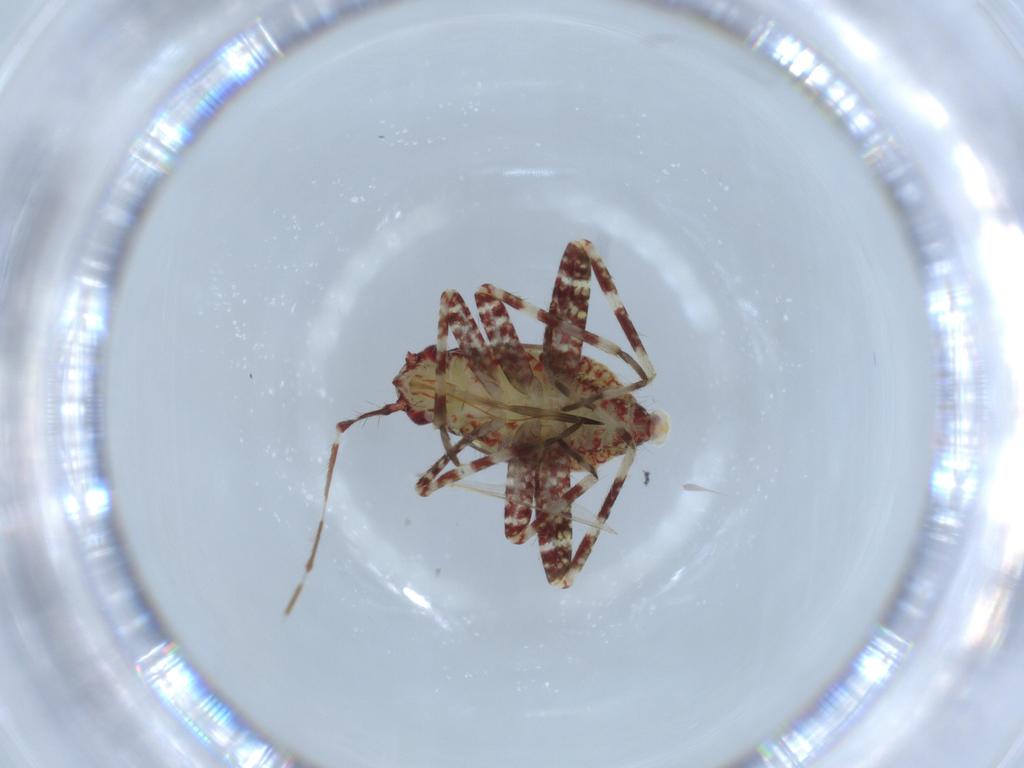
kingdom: Animalia
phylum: Arthropoda
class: Insecta
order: Hemiptera
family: Miridae
